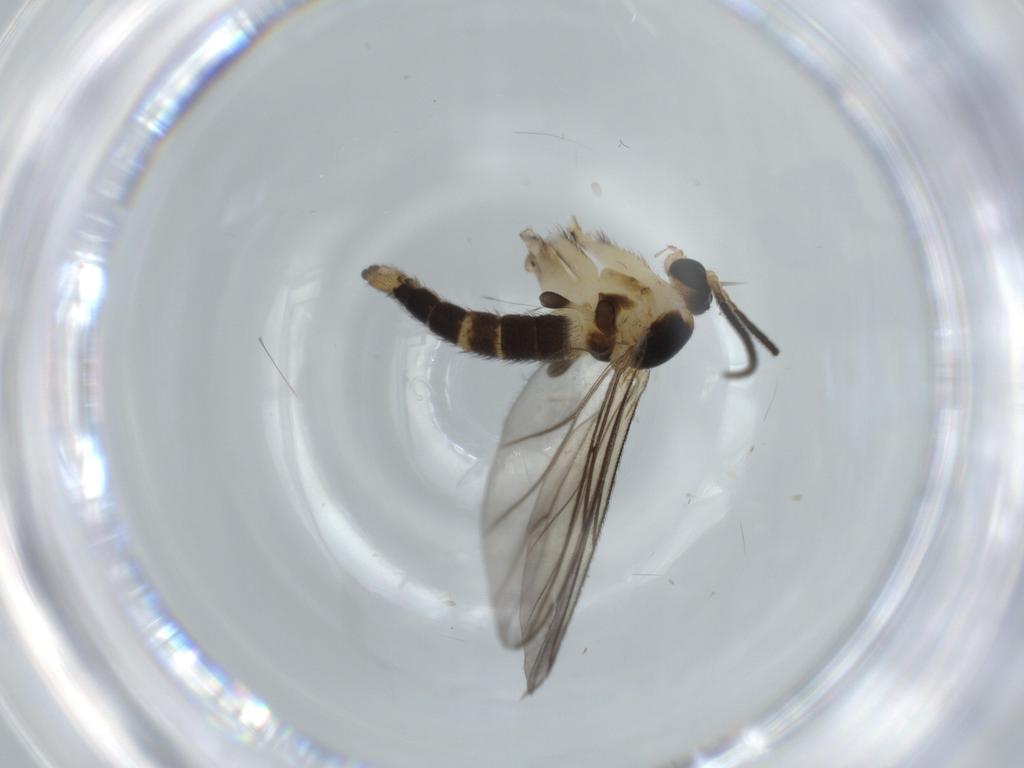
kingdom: Animalia
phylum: Arthropoda
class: Insecta
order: Diptera
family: Sciaridae
